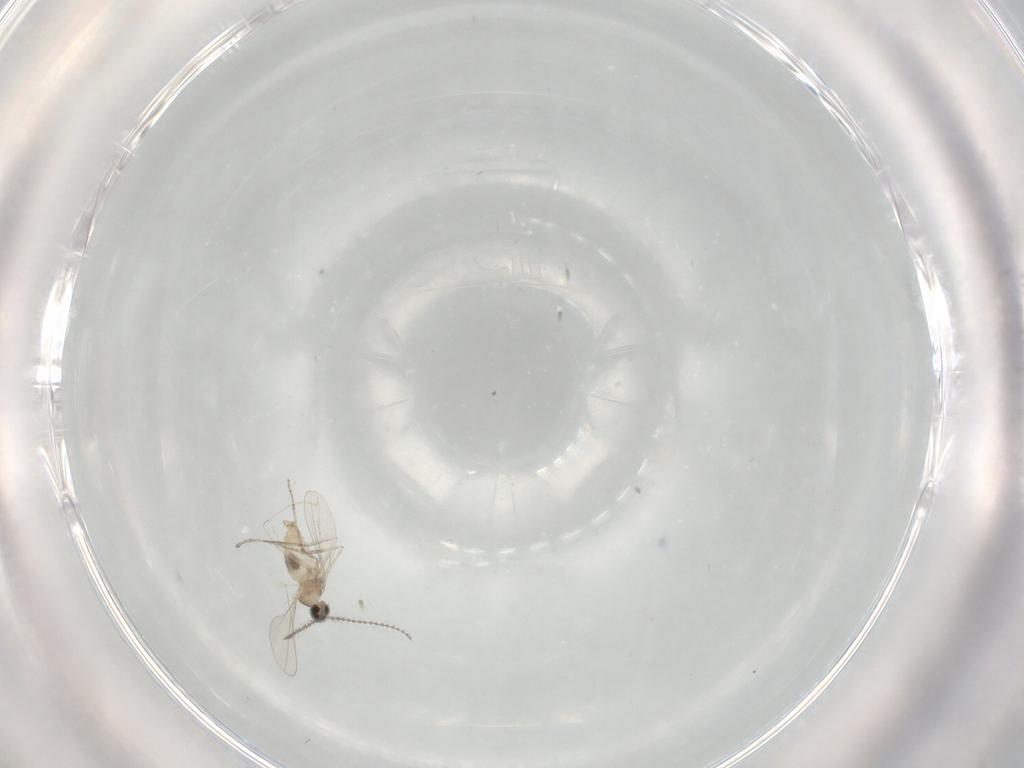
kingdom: Animalia
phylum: Arthropoda
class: Insecta
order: Diptera
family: Cecidomyiidae
